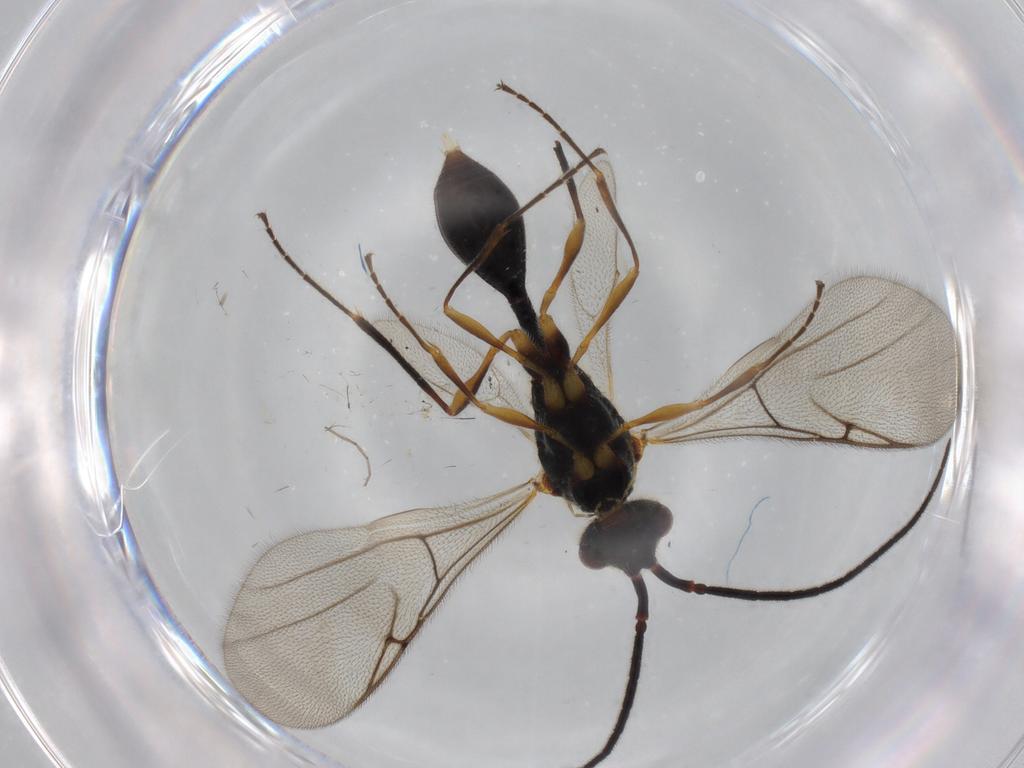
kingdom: Animalia
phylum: Arthropoda
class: Insecta
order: Hymenoptera
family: Diapriidae
